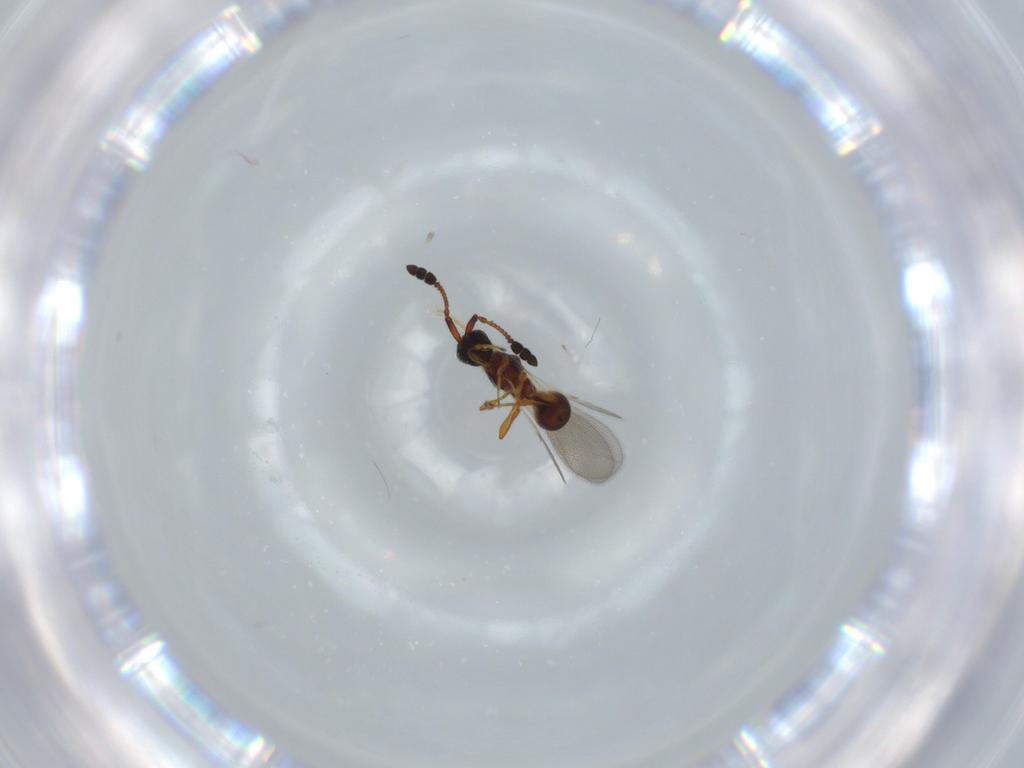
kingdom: Animalia
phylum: Arthropoda
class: Insecta
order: Hymenoptera
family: Diapriidae
